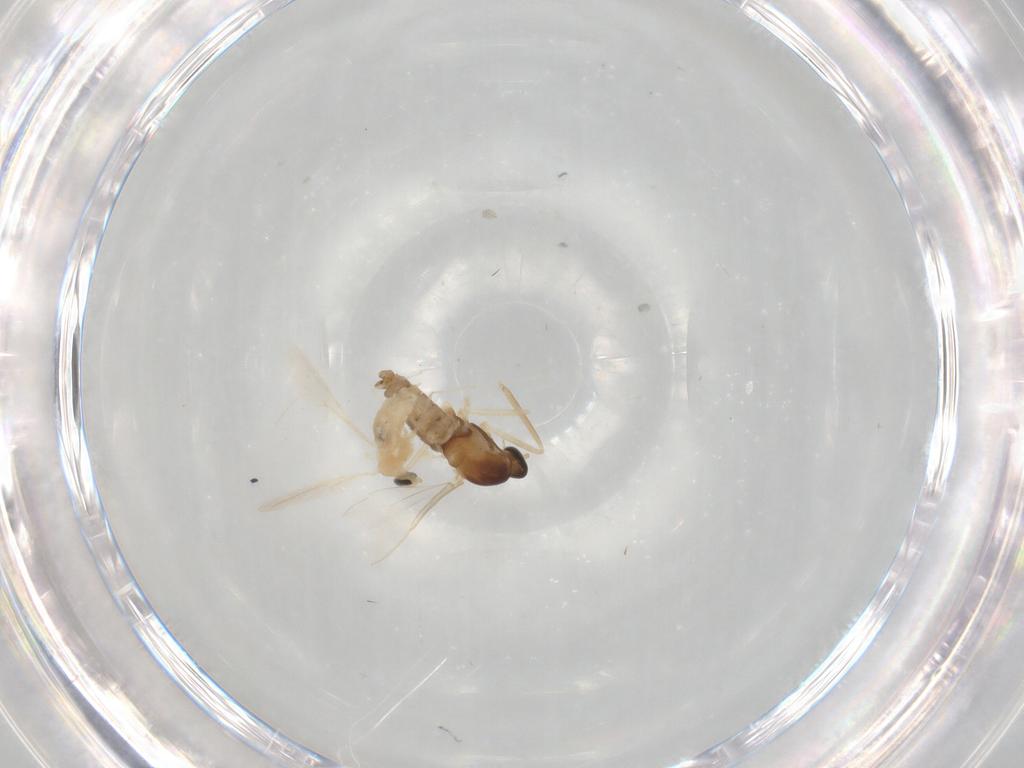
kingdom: Animalia
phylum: Arthropoda
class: Insecta
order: Diptera
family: Cecidomyiidae
